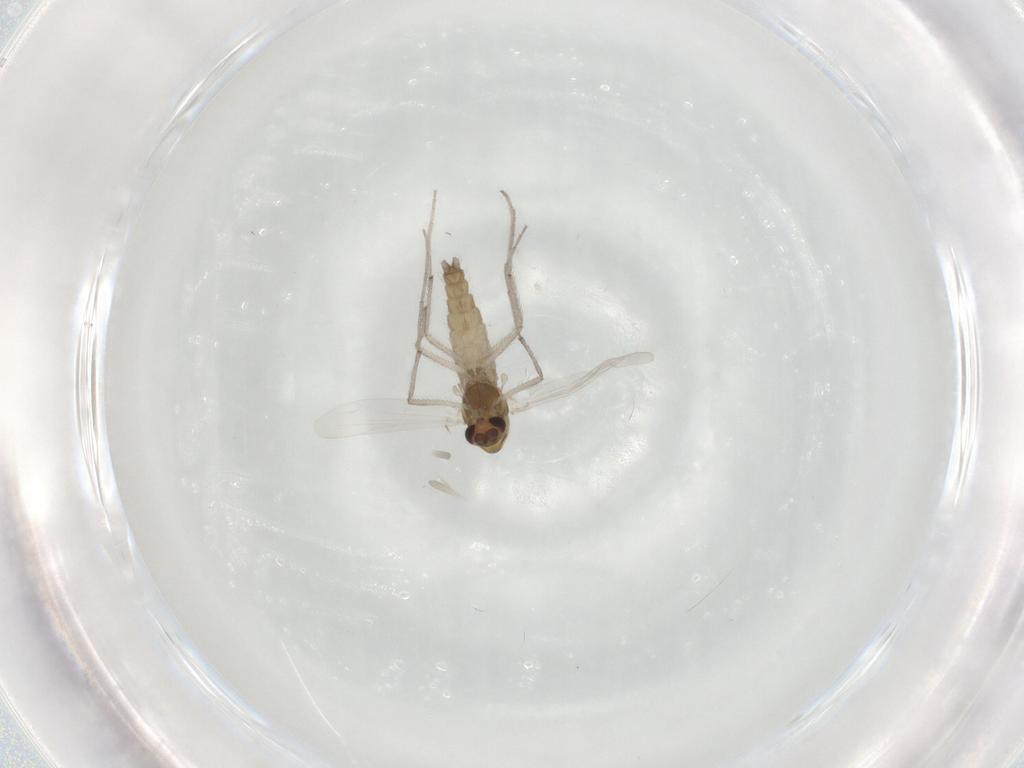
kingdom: Animalia
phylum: Arthropoda
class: Insecta
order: Diptera
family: Chironomidae
